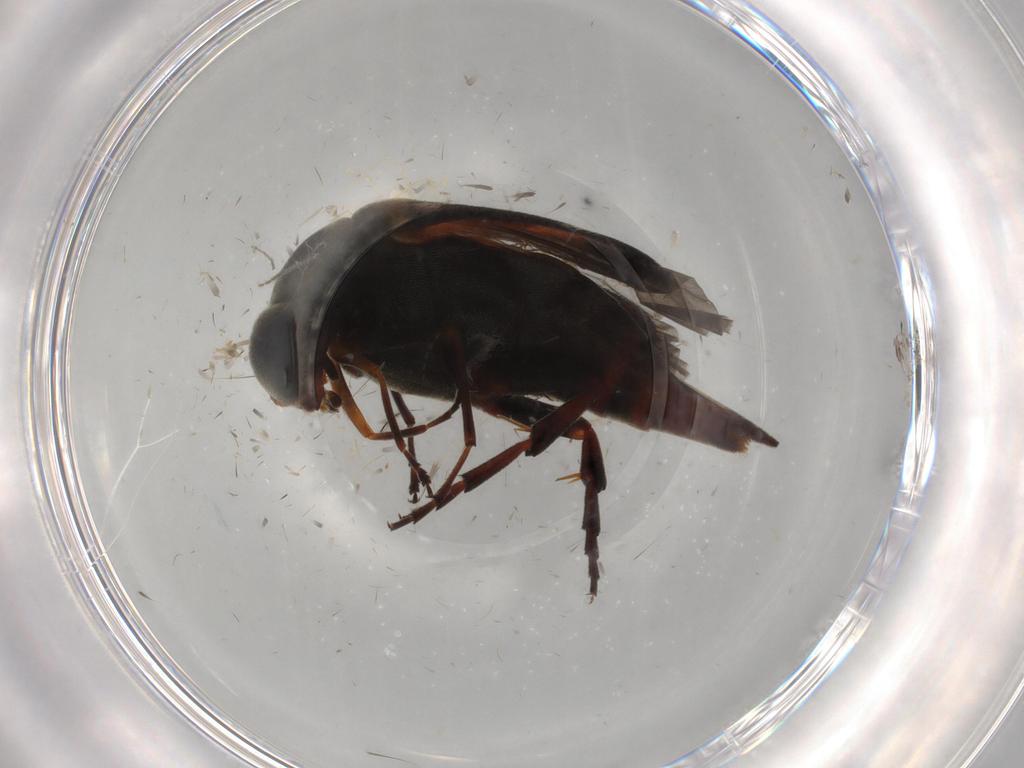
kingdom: Animalia
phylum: Arthropoda
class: Insecta
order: Coleoptera
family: Mordellidae
